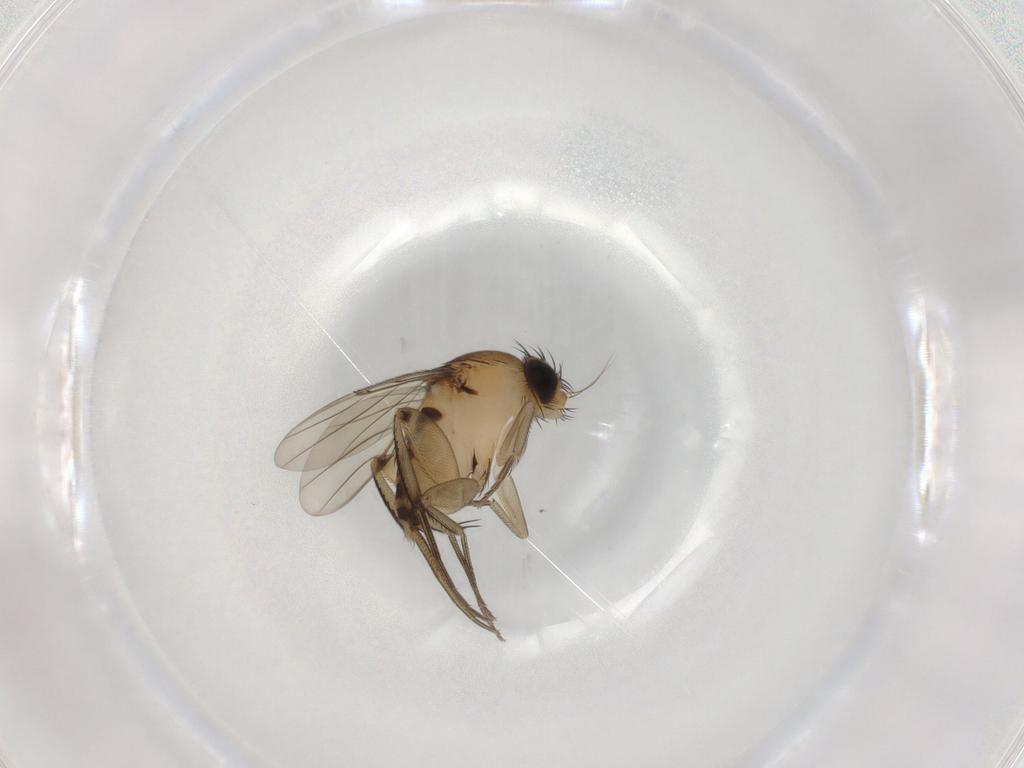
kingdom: Animalia
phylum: Arthropoda
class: Insecta
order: Diptera
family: Phoridae
